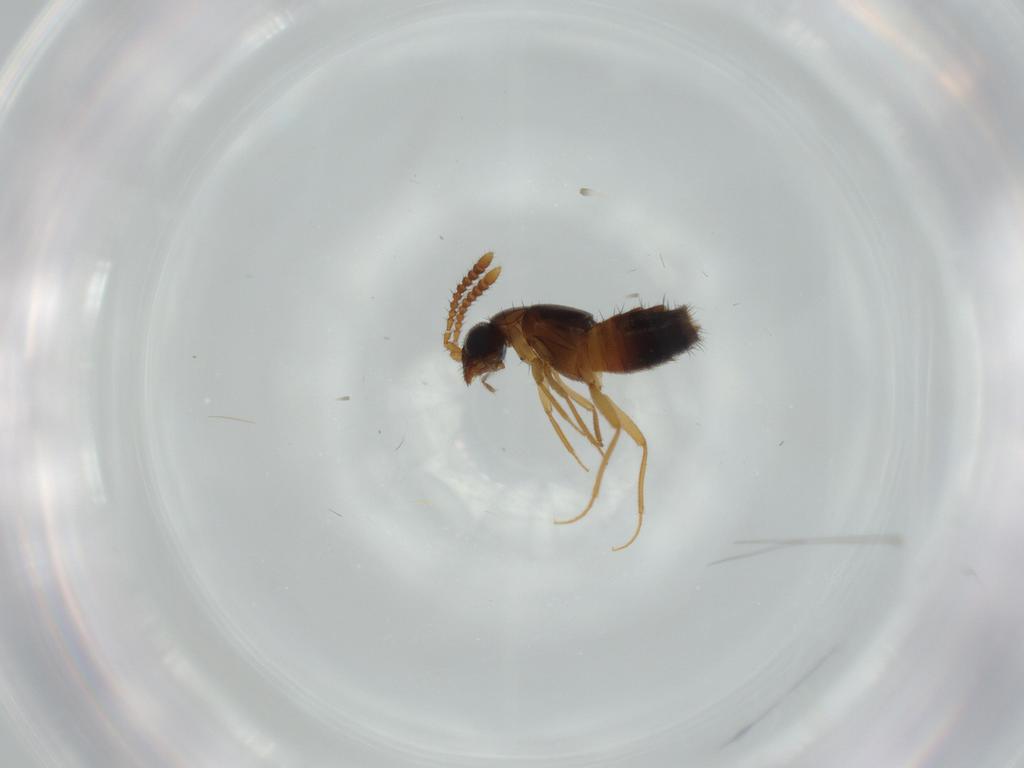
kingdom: Animalia
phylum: Arthropoda
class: Insecta
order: Coleoptera
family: Staphylinidae
